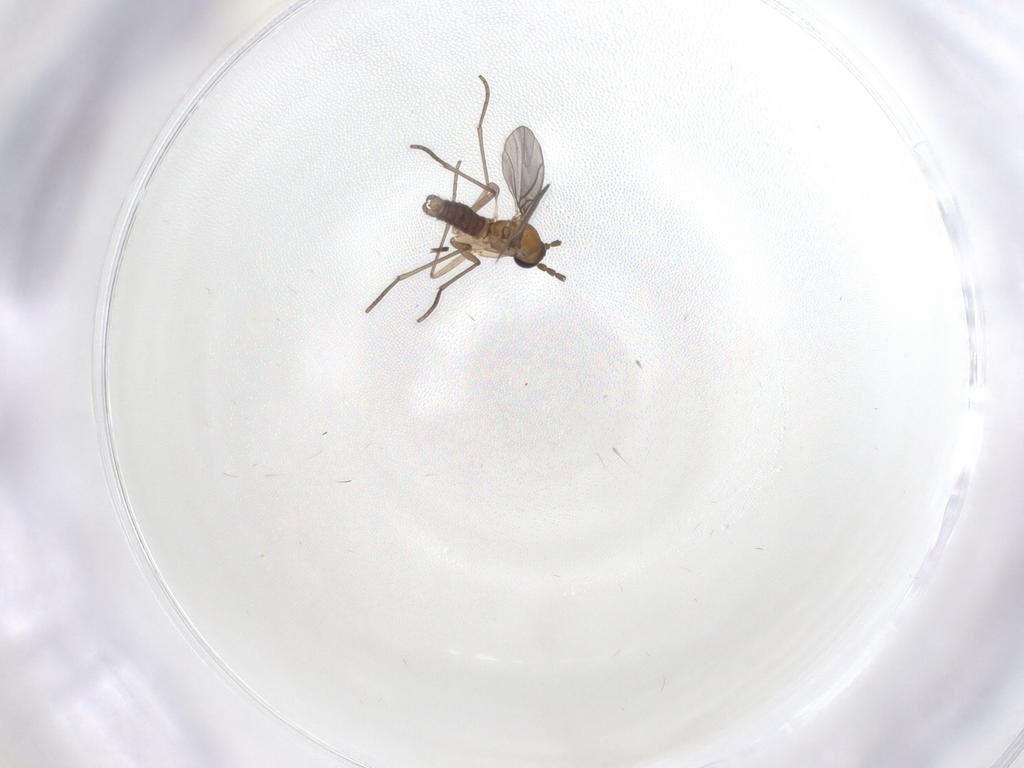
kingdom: Animalia
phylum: Arthropoda
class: Insecta
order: Diptera
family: Sciaridae
